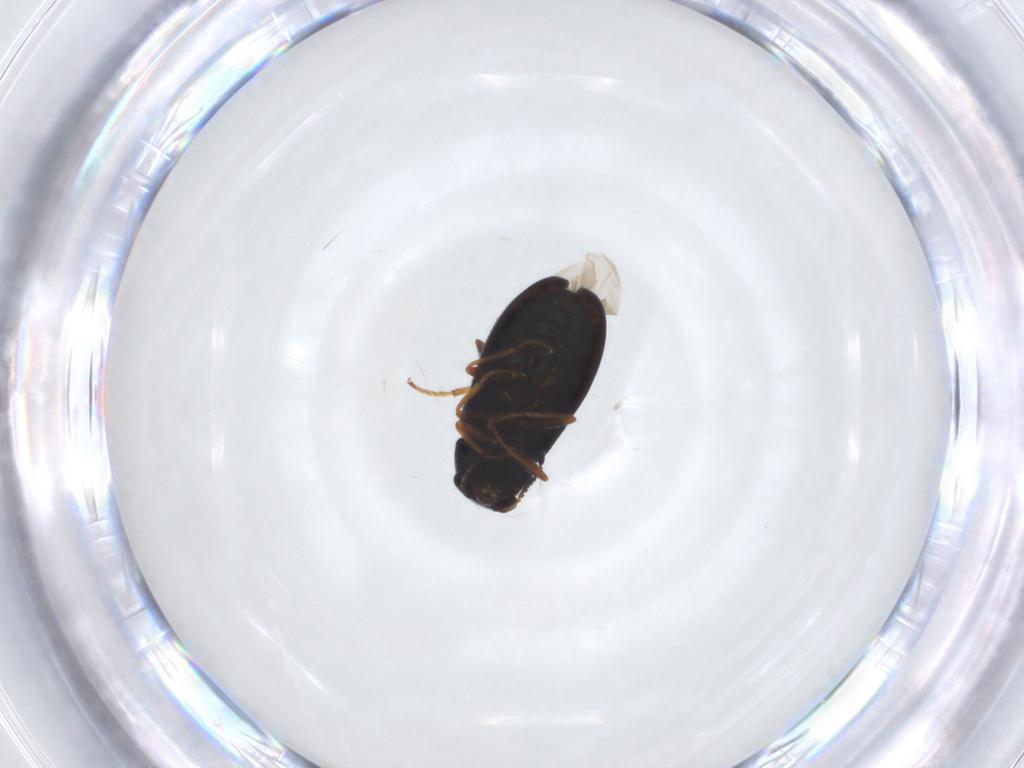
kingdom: Animalia
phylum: Arthropoda
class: Insecta
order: Coleoptera
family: Melyridae
